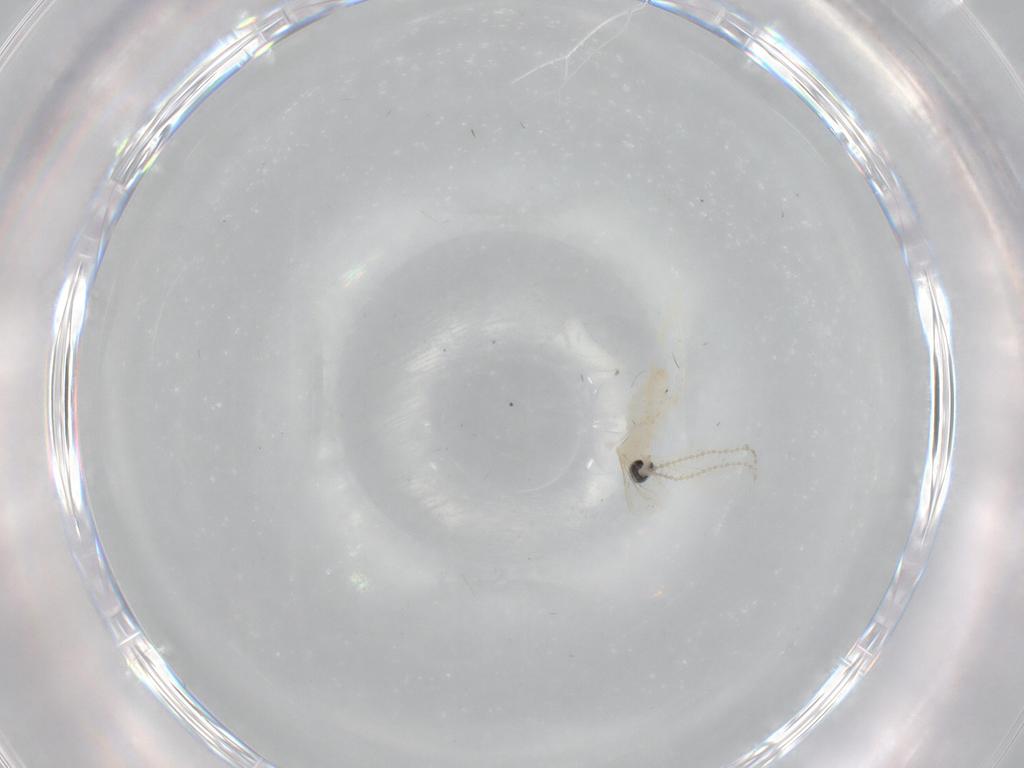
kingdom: Animalia
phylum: Arthropoda
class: Insecta
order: Diptera
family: Cecidomyiidae
